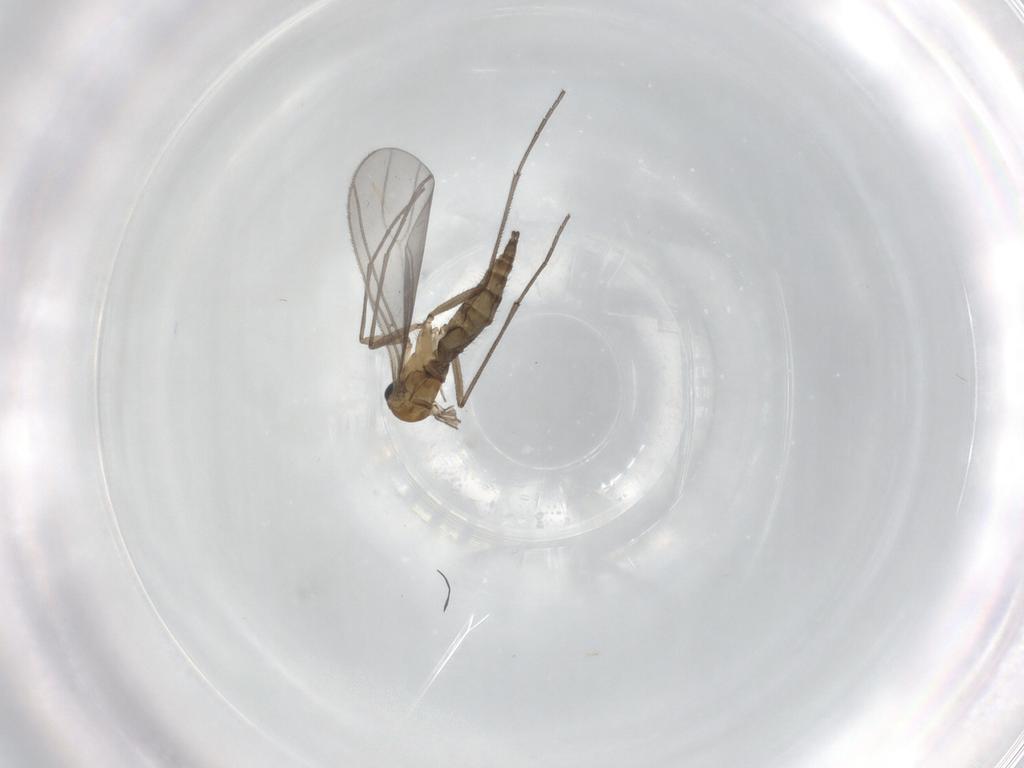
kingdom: Animalia
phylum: Arthropoda
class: Insecta
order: Diptera
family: Sciaridae
